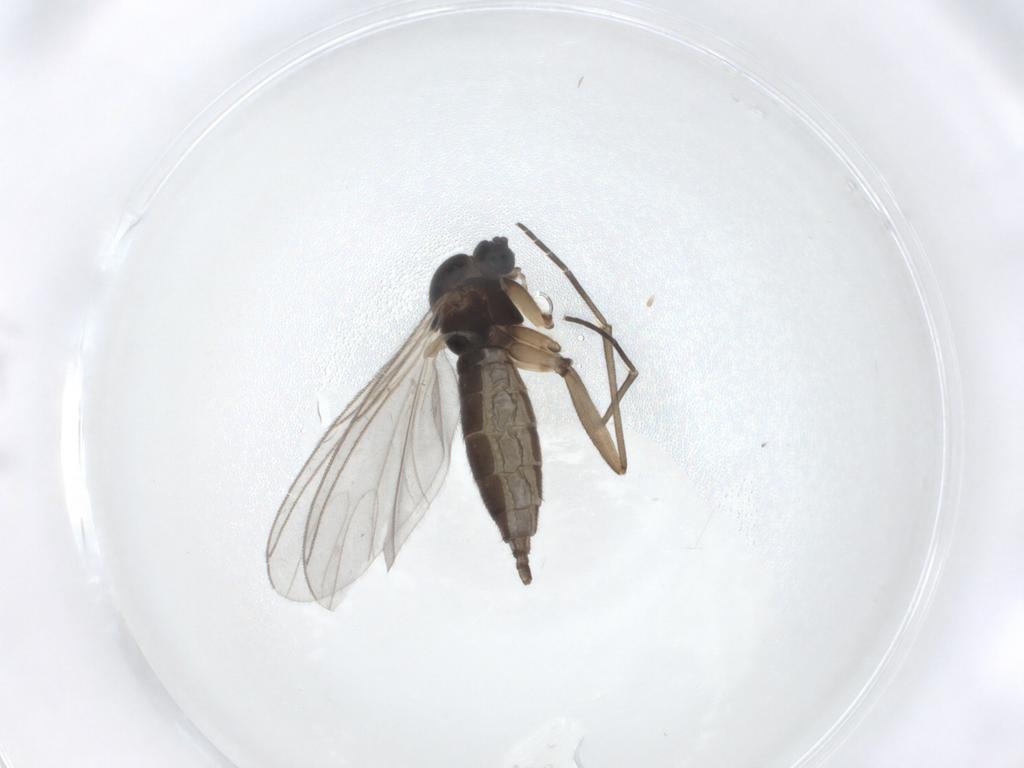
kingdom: Animalia
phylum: Arthropoda
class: Insecta
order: Diptera
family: Sciaridae
